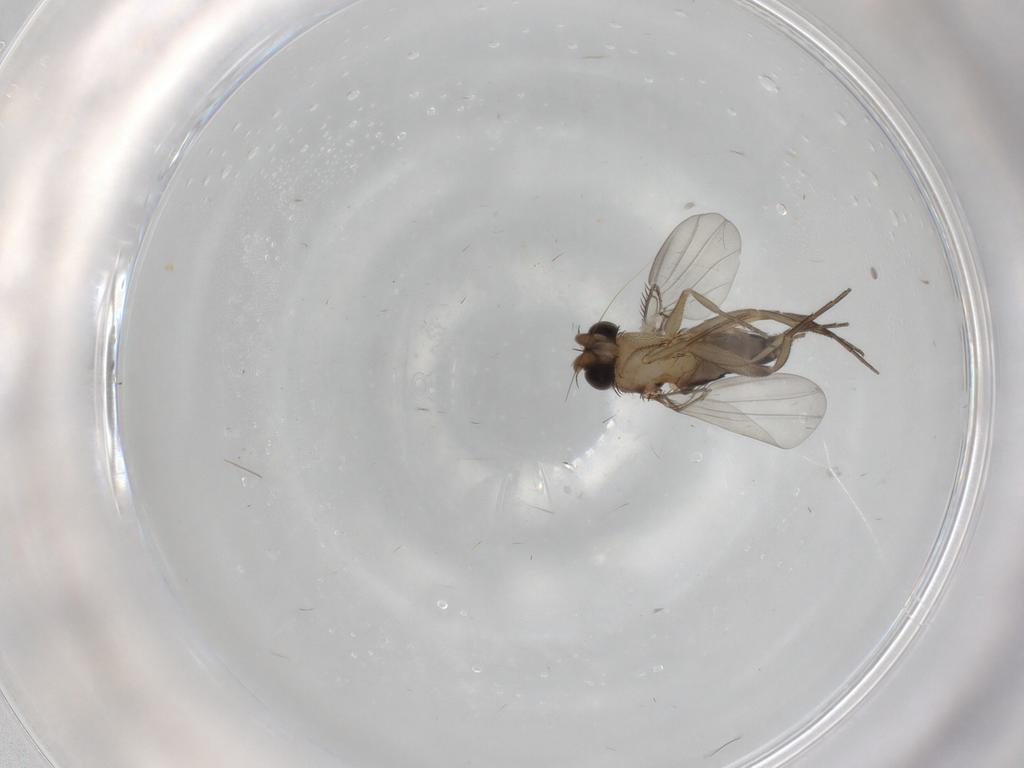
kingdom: Animalia
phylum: Arthropoda
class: Insecta
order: Diptera
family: Phoridae
